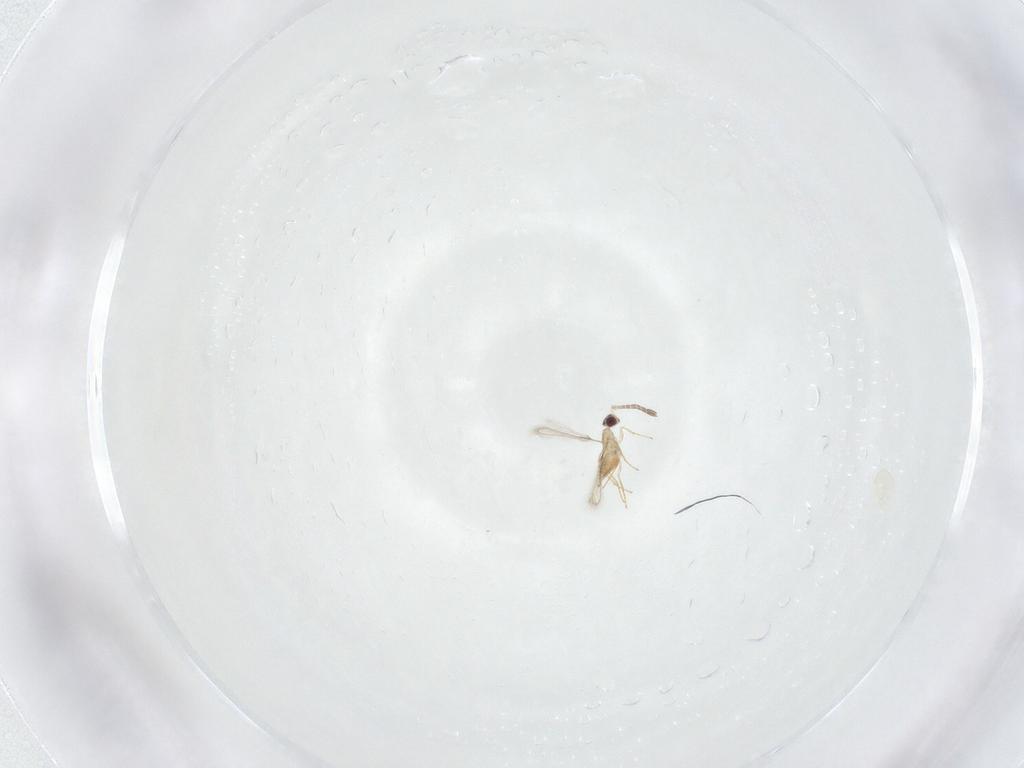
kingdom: Animalia
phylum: Arthropoda
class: Insecta
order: Hymenoptera
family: Mymaridae
